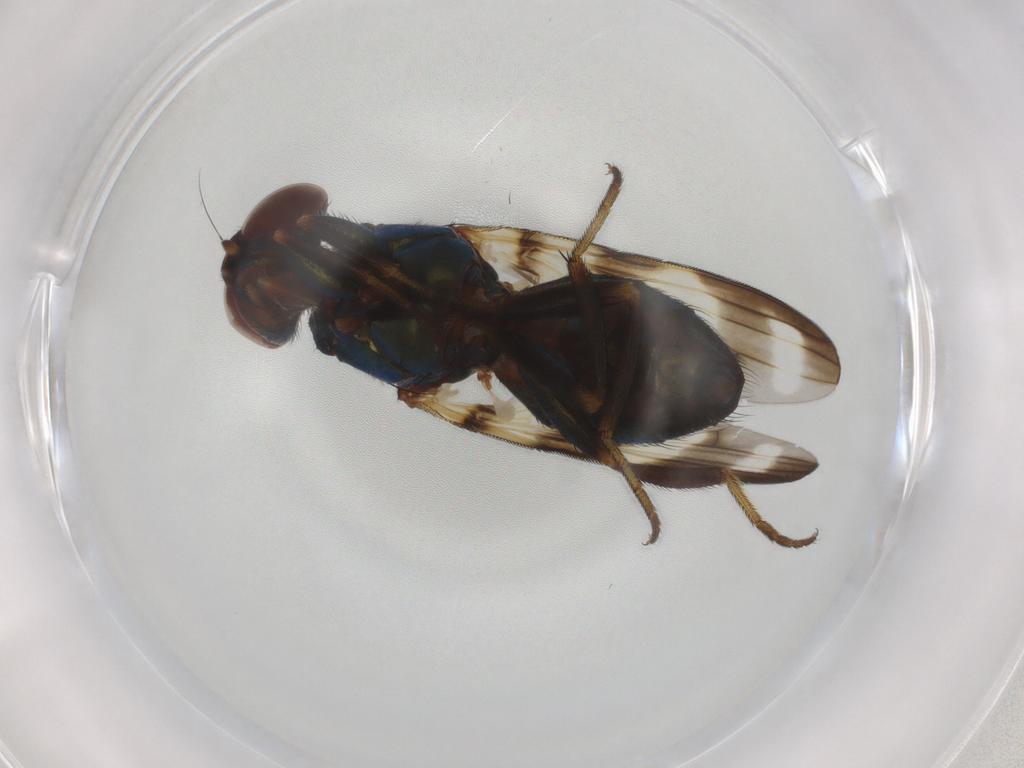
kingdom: Animalia
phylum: Arthropoda
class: Insecta
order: Diptera
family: Ulidiidae
